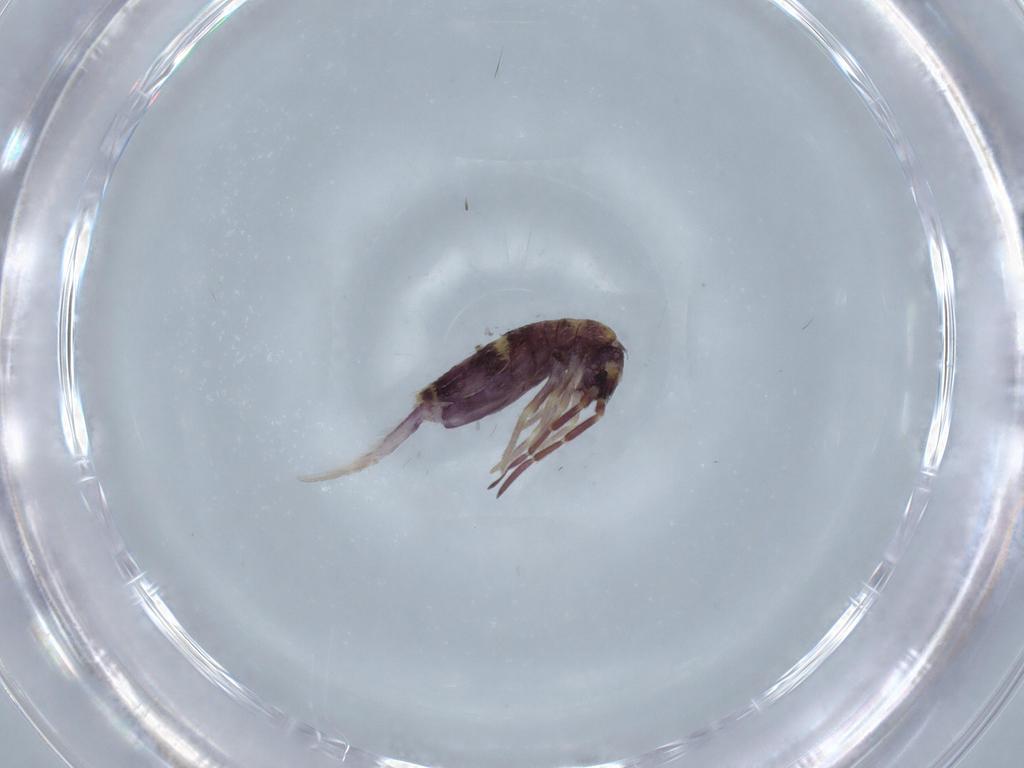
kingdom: Animalia
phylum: Arthropoda
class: Collembola
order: Entomobryomorpha
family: Entomobryidae
